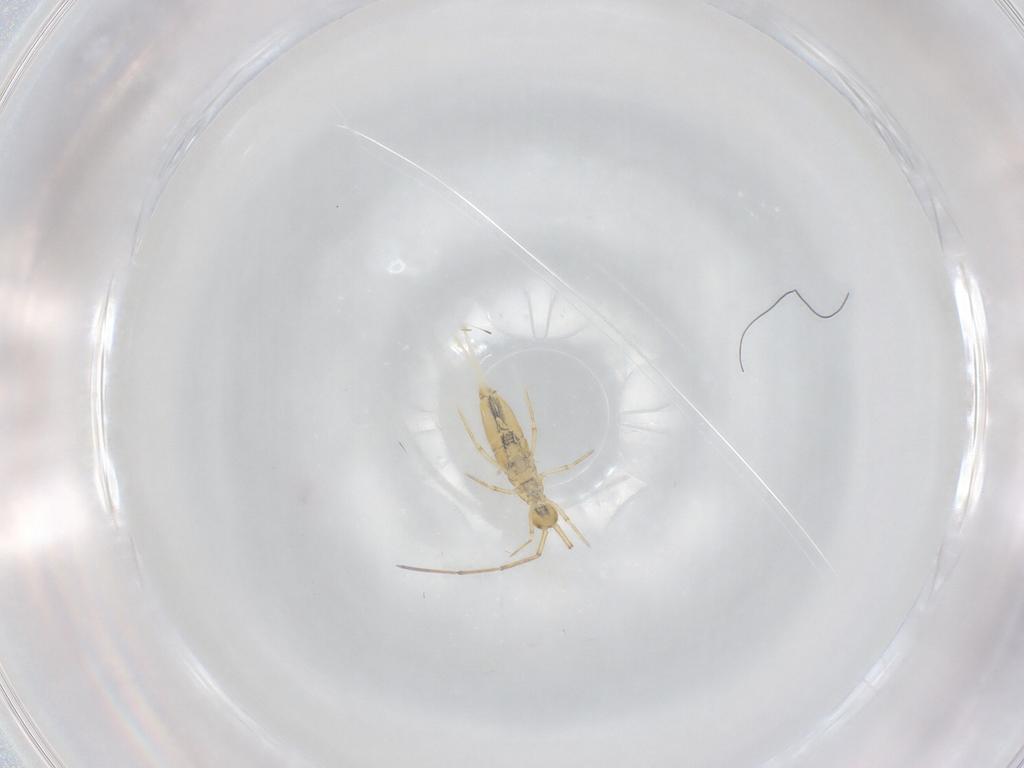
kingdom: Animalia
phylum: Arthropoda
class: Collembola
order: Entomobryomorpha
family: Paronellidae
